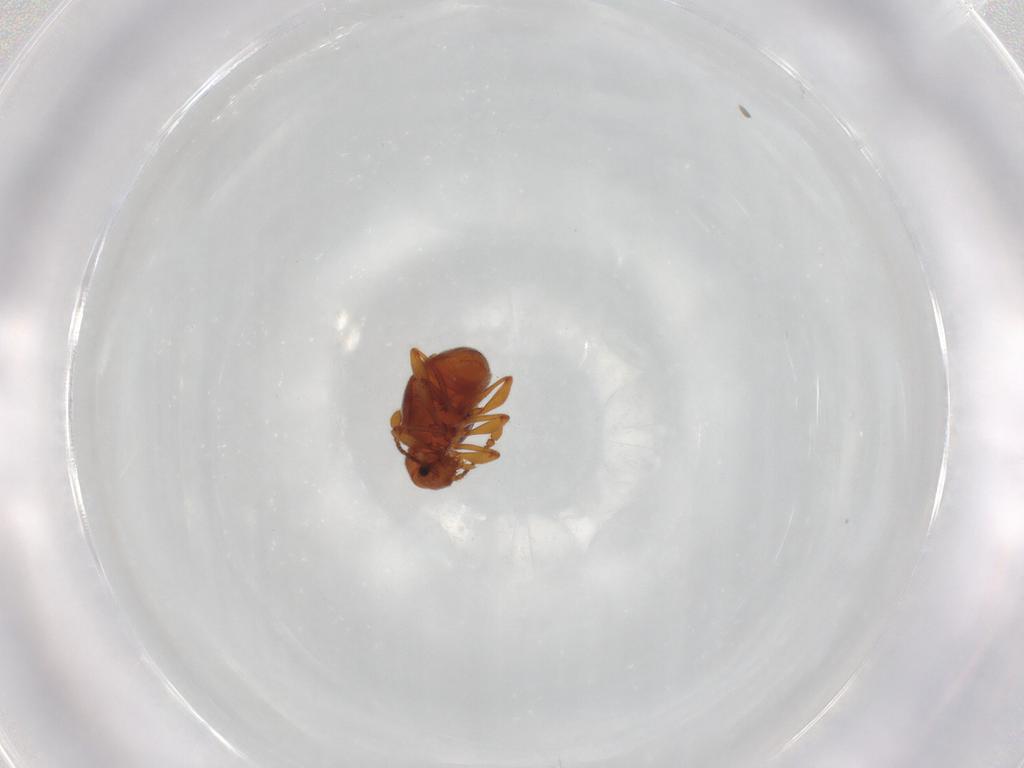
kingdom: Animalia
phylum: Arthropoda
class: Insecta
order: Coleoptera
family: Staphylinidae
